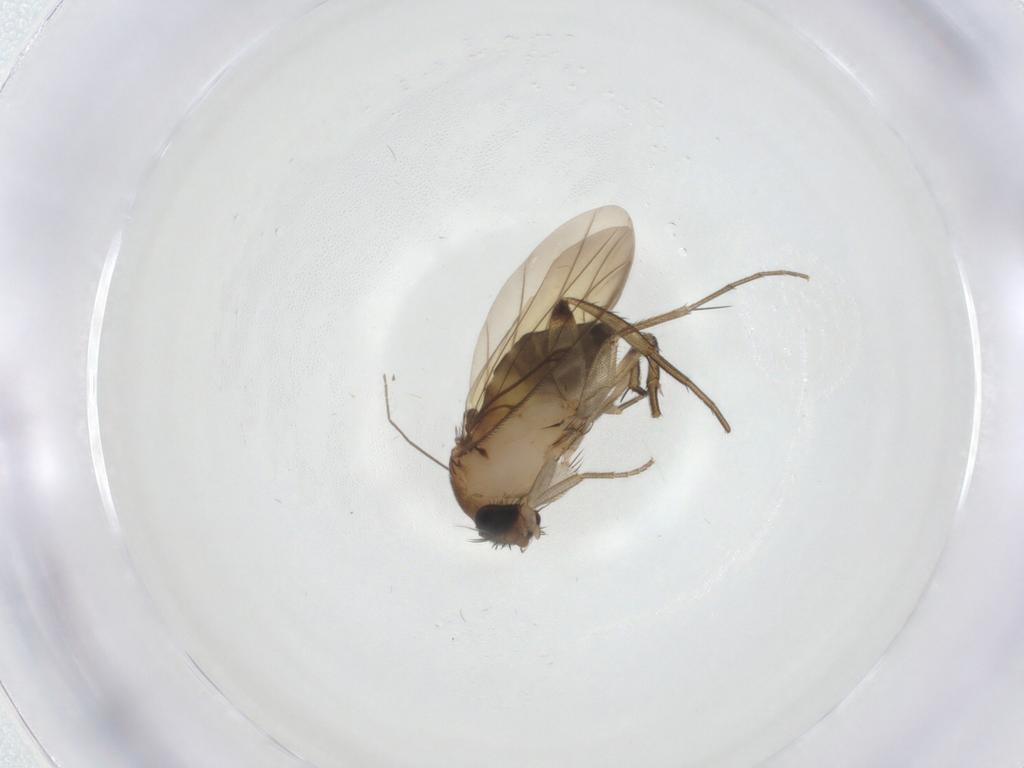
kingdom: Animalia
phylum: Arthropoda
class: Insecta
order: Diptera
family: Phoridae
